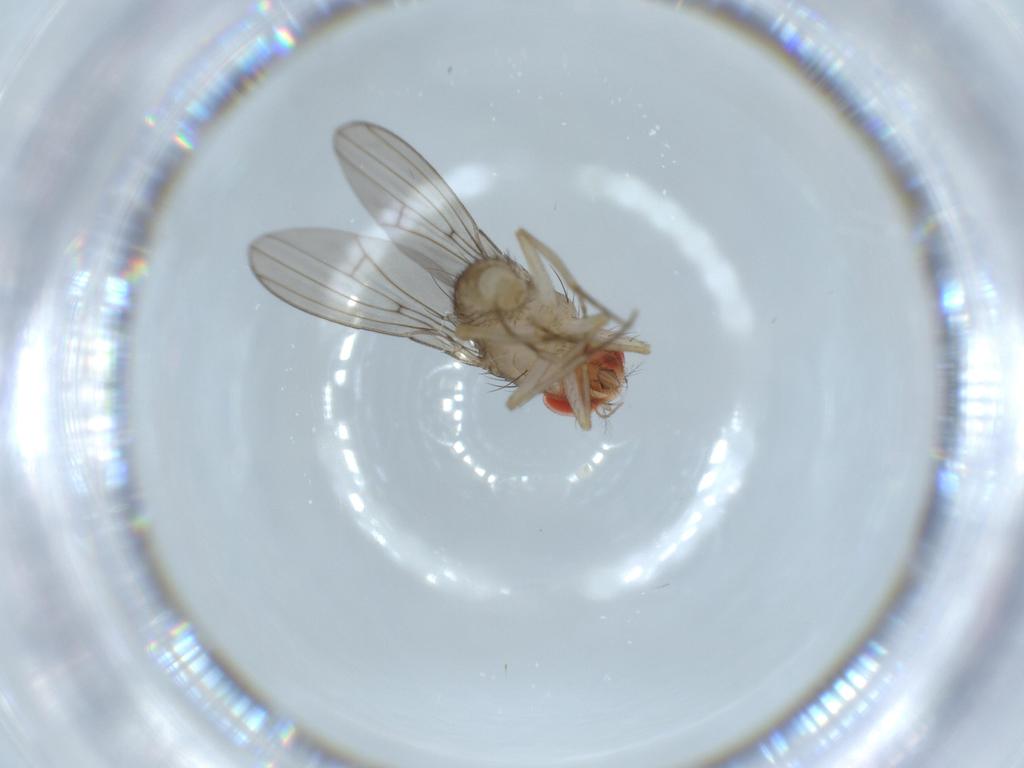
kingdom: Animalia
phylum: Arthropoda
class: Insecta
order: Diptera
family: Drosophilidae
